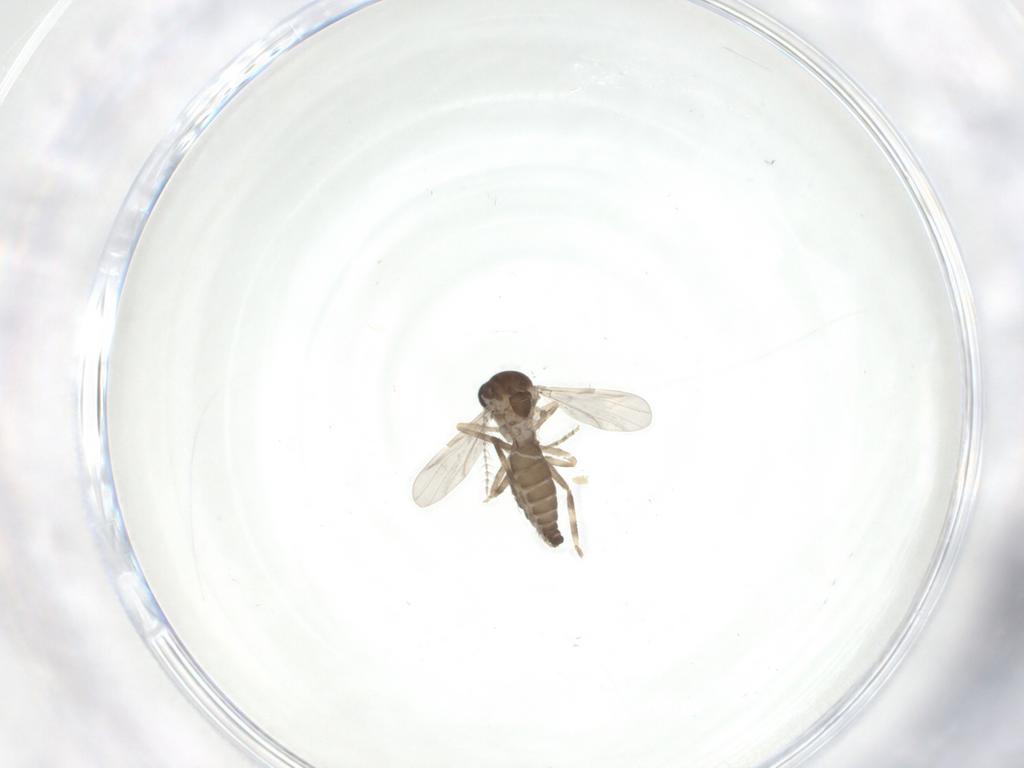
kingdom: Animalia
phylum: Arthropoda
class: Insecta
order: Diptera
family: Ceratopogonidae
